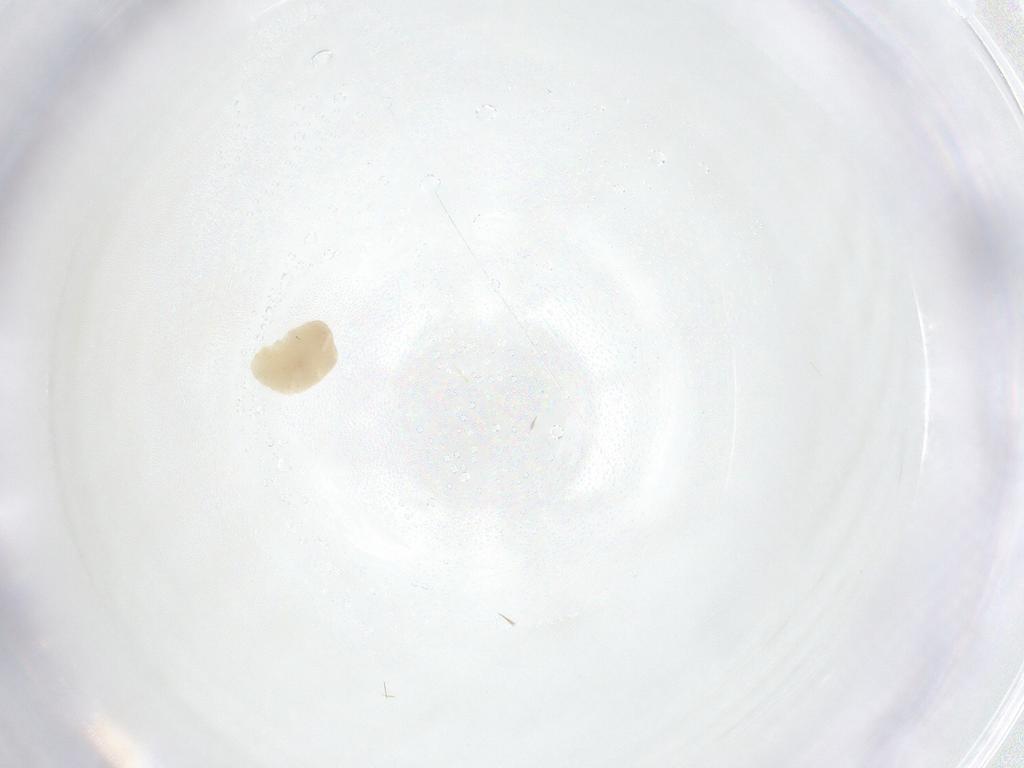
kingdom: Animalia
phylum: Arthropoda
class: Insecta
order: Coleoptera
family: Bostrichidae
